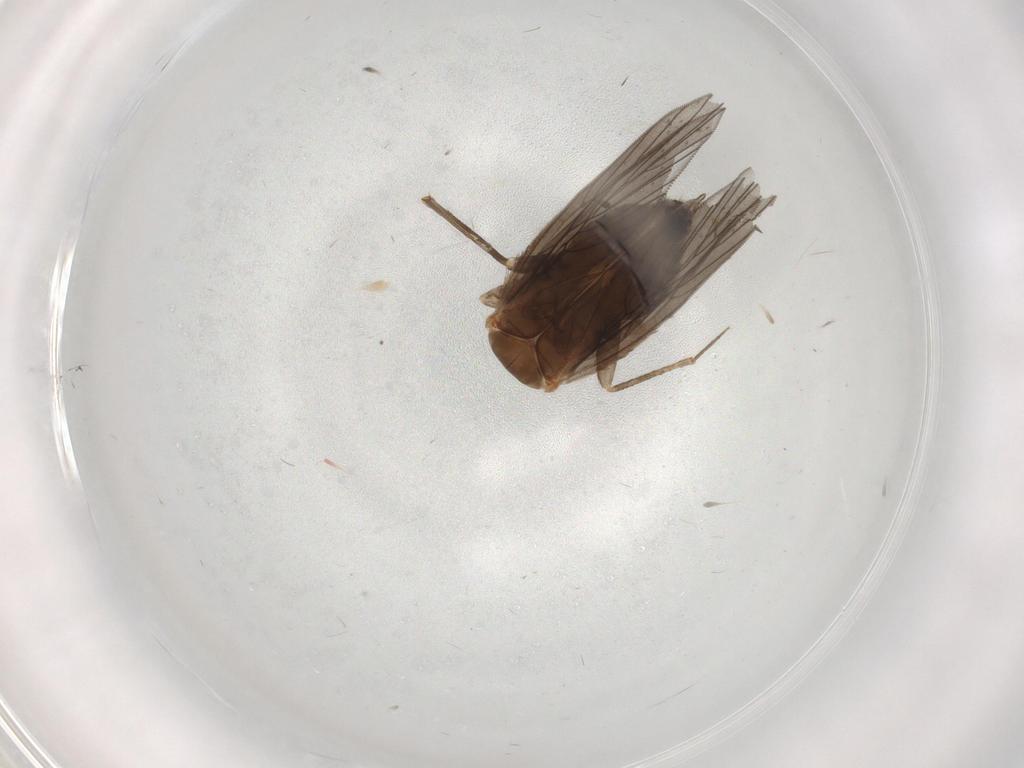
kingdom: Animalia
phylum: Arthropoda
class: Insecta
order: Psocodea
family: Lepidopsocidae
